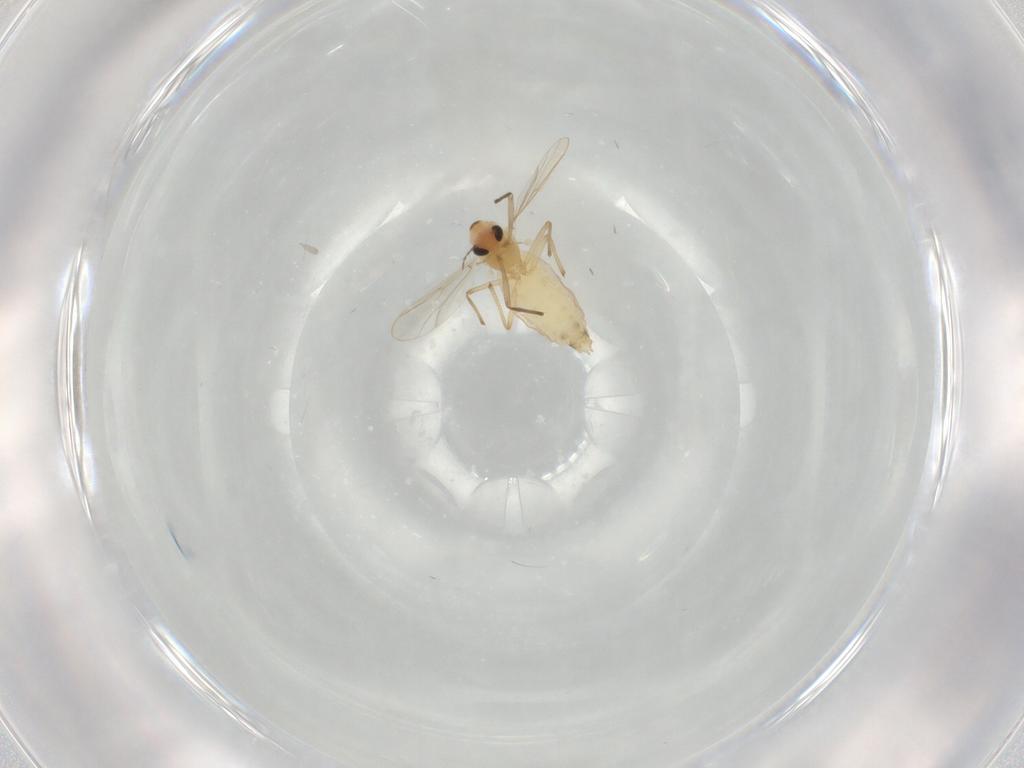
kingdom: Animalia
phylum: Arthropoda
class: Insecta
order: Diptera
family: Chironomidae
